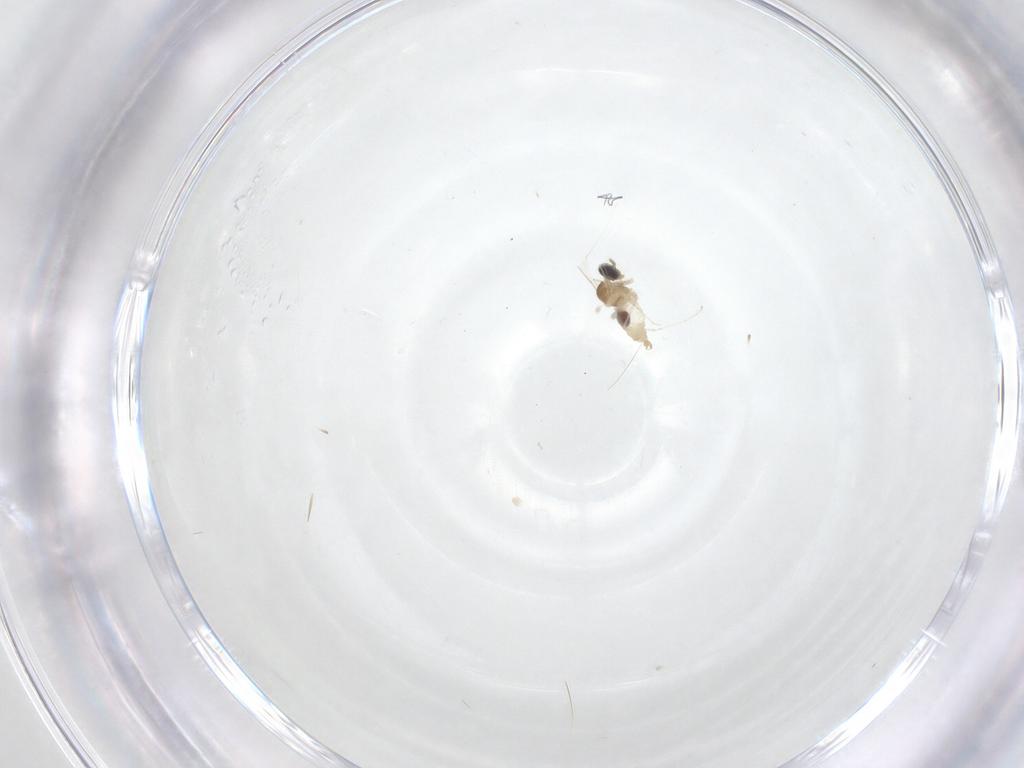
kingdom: Animalia
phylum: Arthropoda
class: Insecta
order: Diptera
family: Cecidomyiidae
